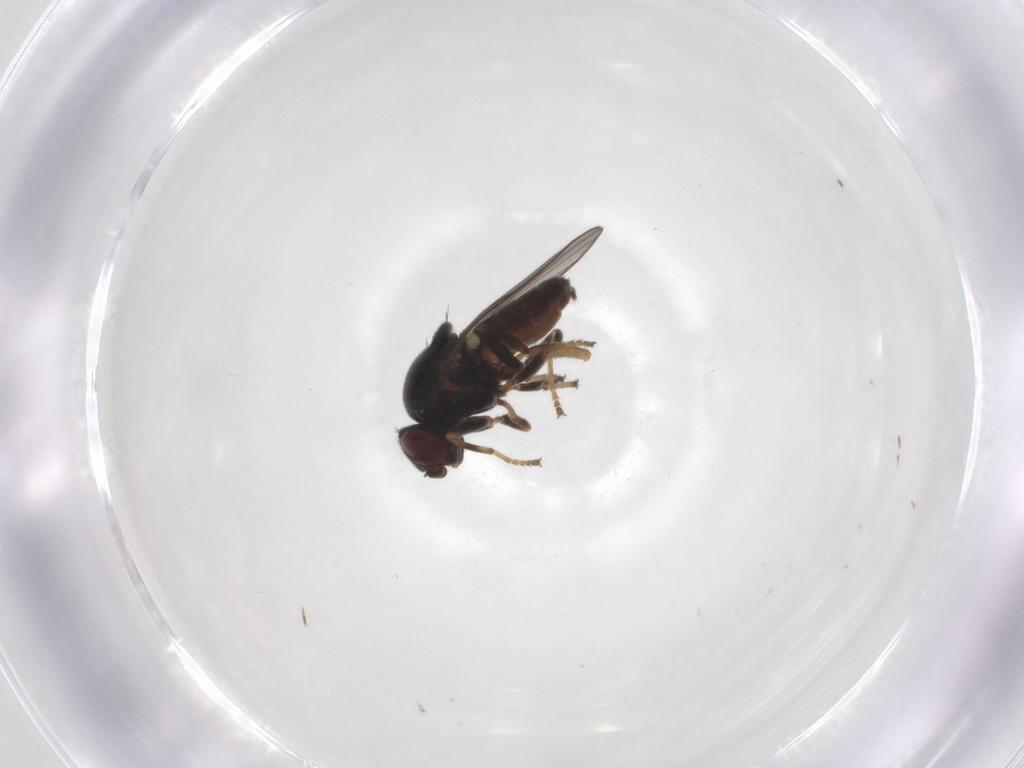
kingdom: Animalia
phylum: Arthropoda
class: Insecta
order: Diptera
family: Chloropidae
